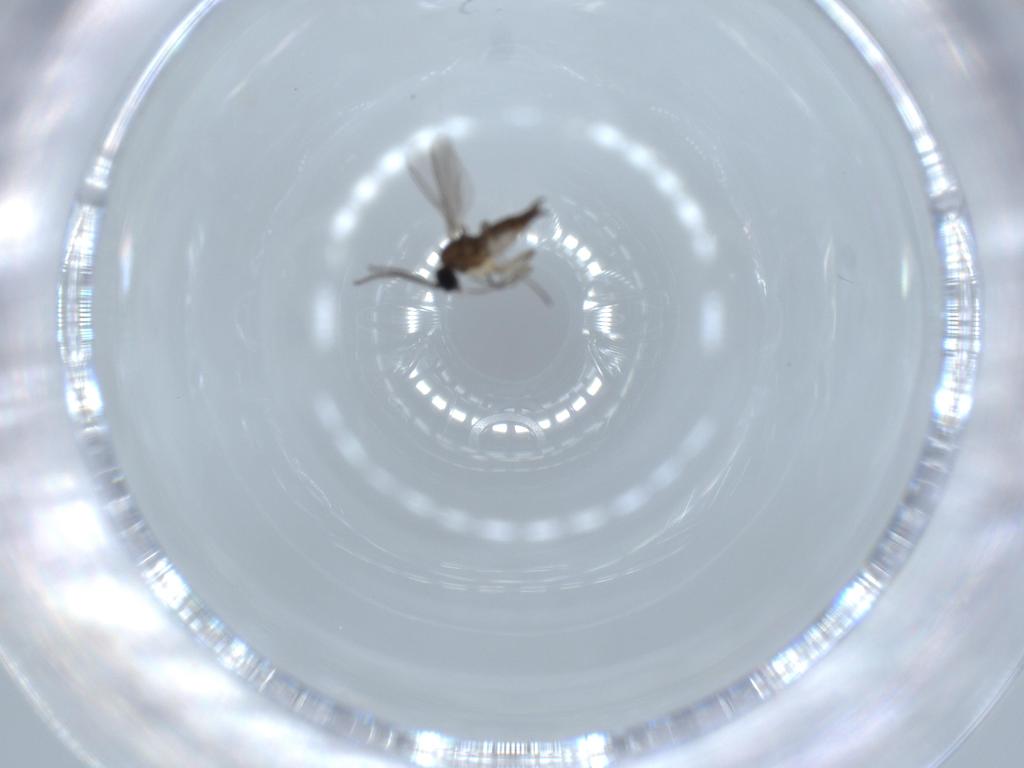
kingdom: Animalia
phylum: Arthropoda
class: Insecta
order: Diptera
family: Sciaridae
